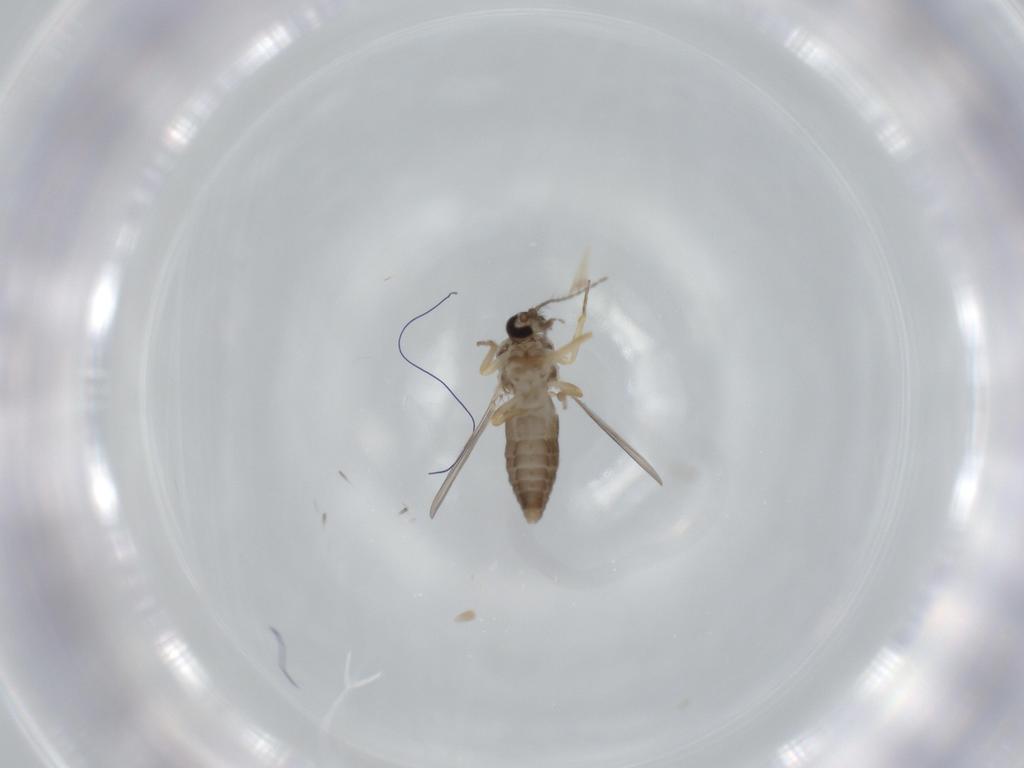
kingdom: Animalia
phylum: Arthropoda
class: Insecta
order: Diptera
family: Ceratopogonidae
